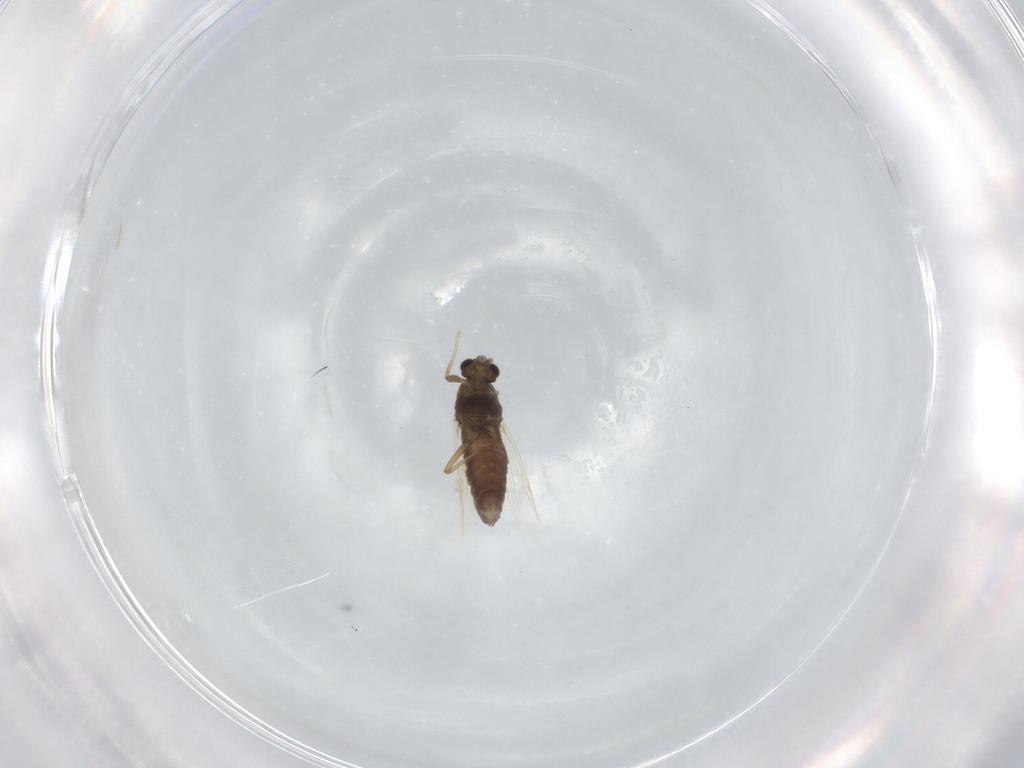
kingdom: Animalia
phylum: Arthropoda
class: Insecta
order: Diptera
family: Chironomidae
